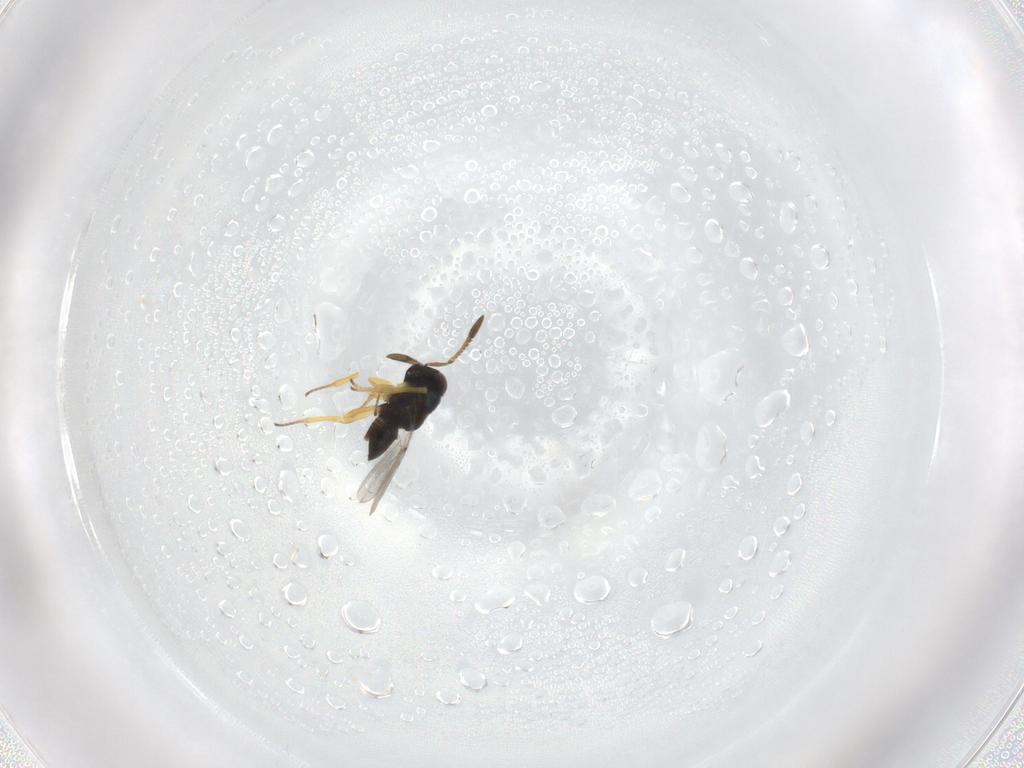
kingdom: Animalia
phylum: Arthropoda
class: Insecta
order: Hymenoptera
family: Encyrtidae
